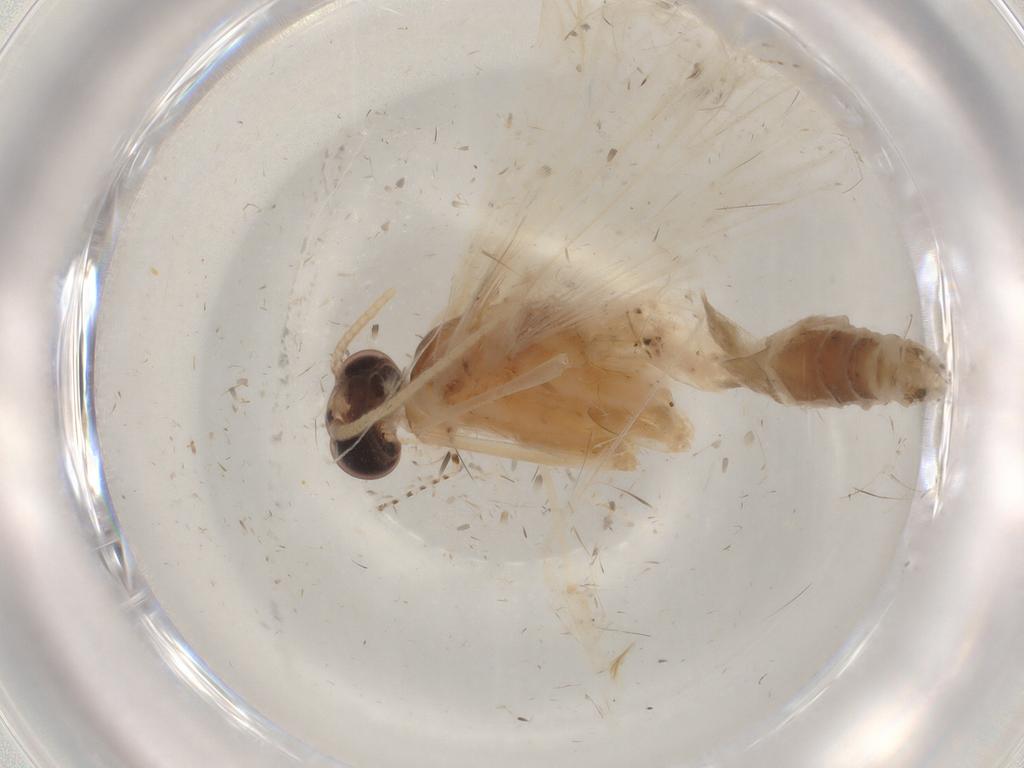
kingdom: Animalia
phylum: Arthropoda
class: Insecta
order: Lepidoptera
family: Crambidae
